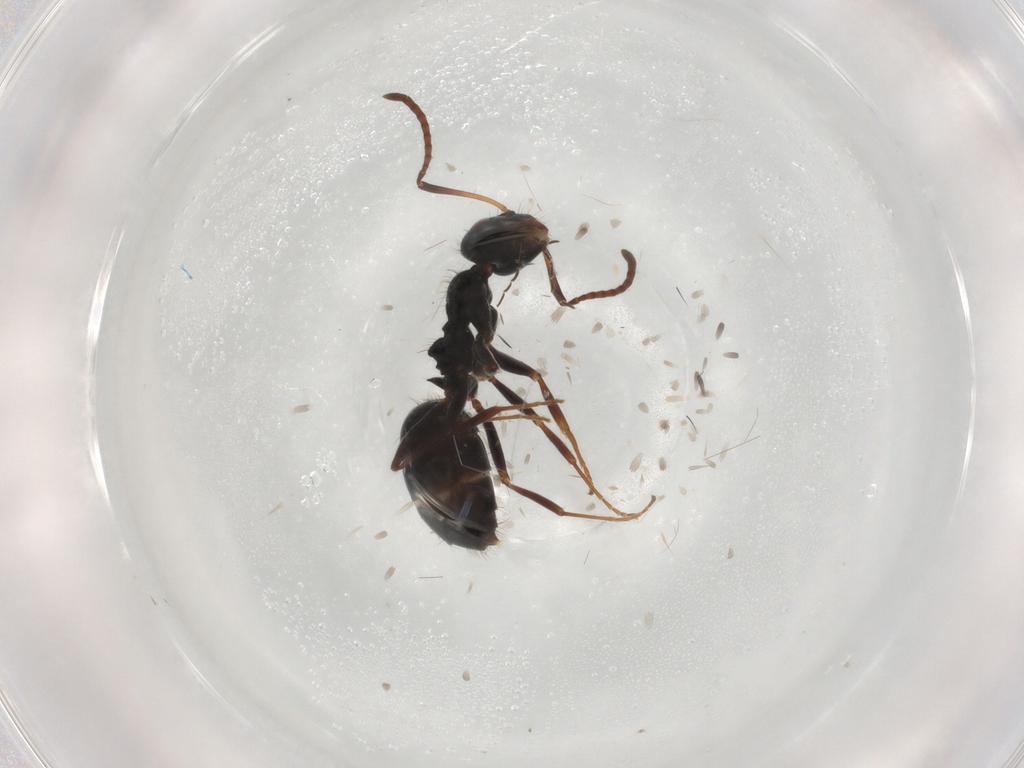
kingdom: Animalia
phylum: Arthropoda
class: Insecta
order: Hymenoptera
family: Formicidae
